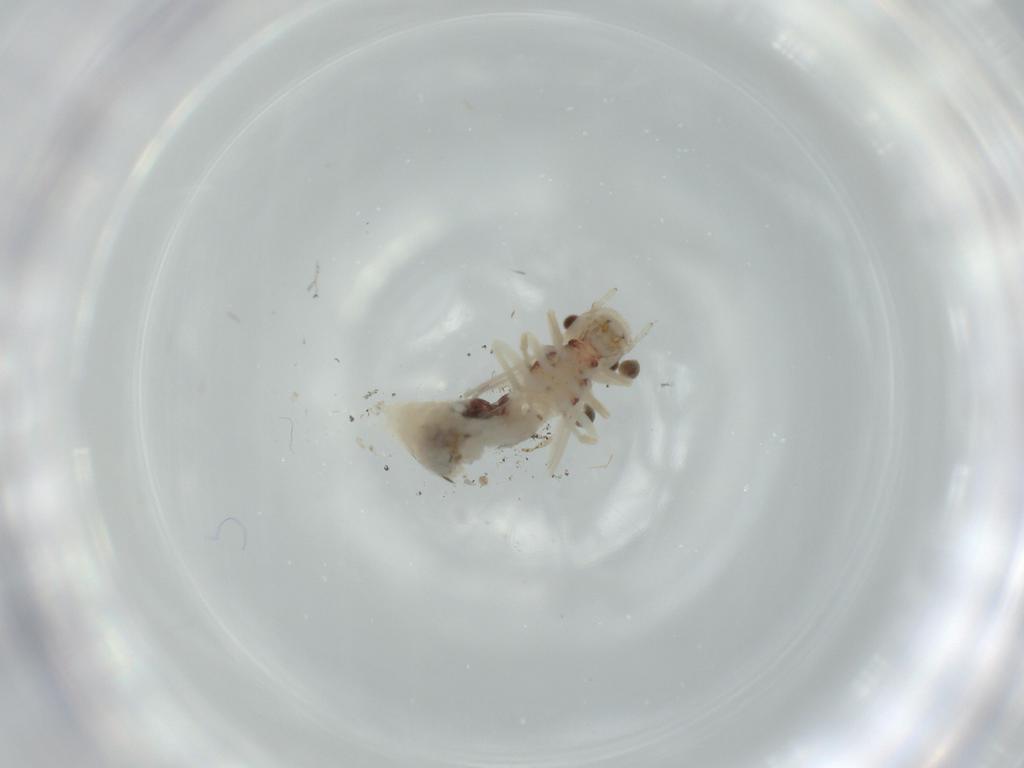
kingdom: Animalia
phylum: Arthropoda
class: Insecta
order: Psocodea
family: Caeciliusidae
